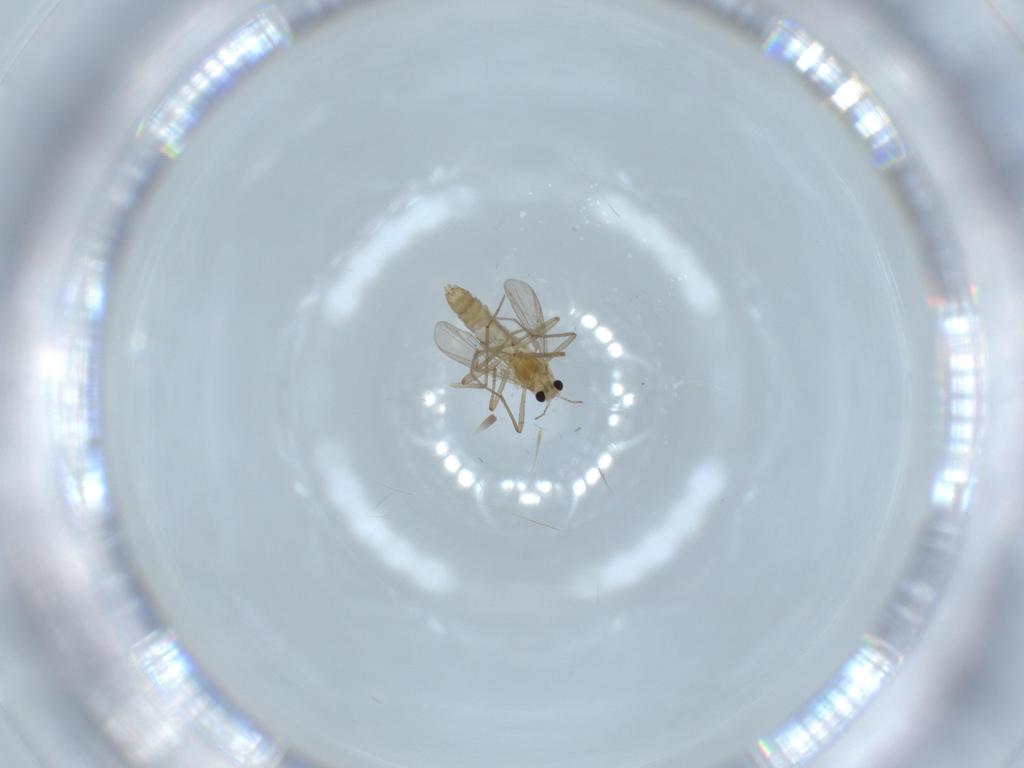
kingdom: Animalia
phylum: Arthropoda
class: Insecta
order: Diptera
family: Chironomidae
